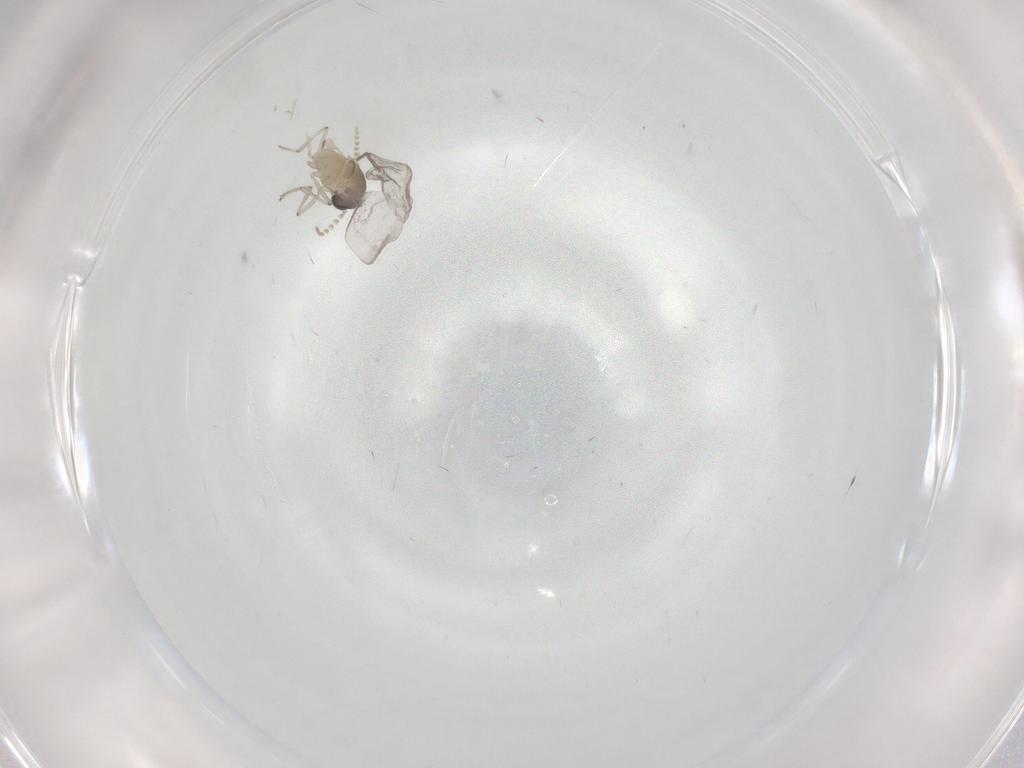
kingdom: Animalia
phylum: Arthropoda
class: Insecta
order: Diptera
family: Cecidomyiidae
